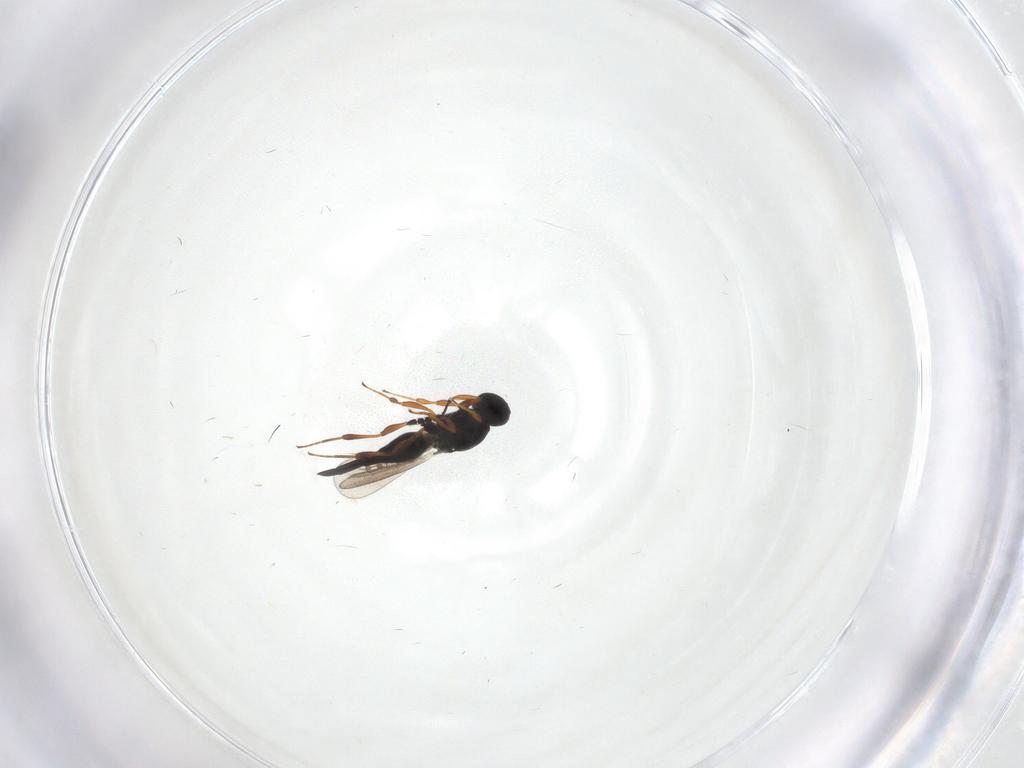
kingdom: Animalia
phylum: Arthropoda
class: Insecta
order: Hymenoptera
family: Platygastridae
